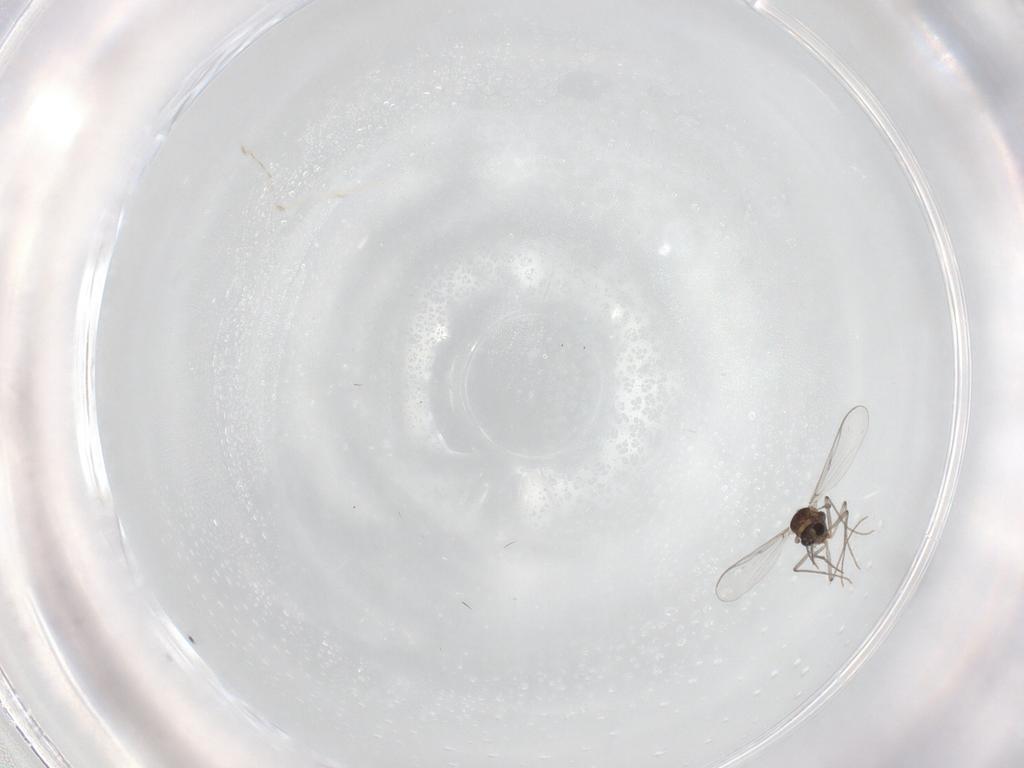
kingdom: Animalia
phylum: Arthropoda
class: Insecta
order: Diptera
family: Chironomidae
